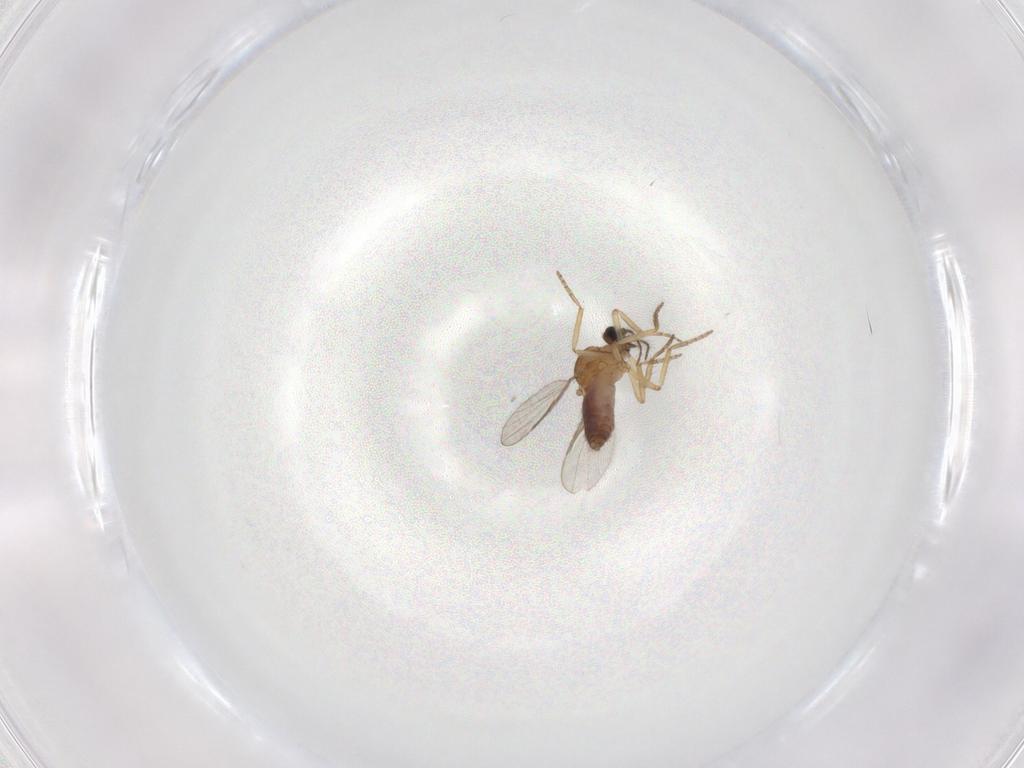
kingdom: Animalia
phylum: Arthropoda
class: Insecta
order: Diptera
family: Chironomidae
